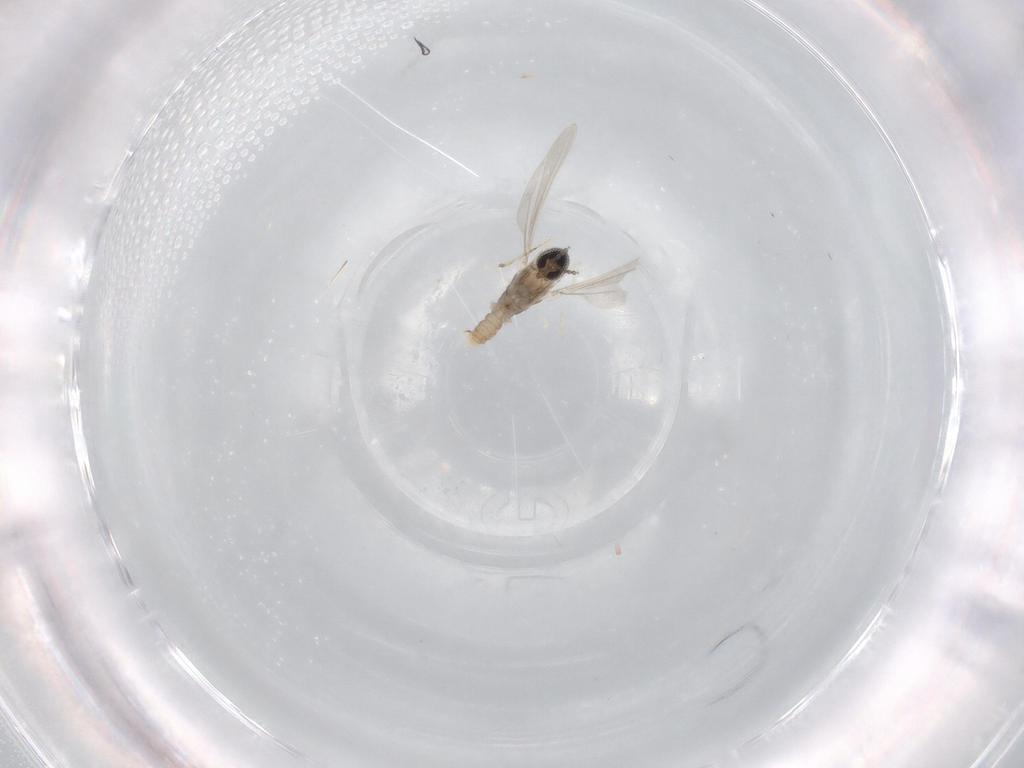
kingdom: Animalia
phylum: Arthropoda
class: Insecta
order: Diptera
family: Cecidomyiidae
